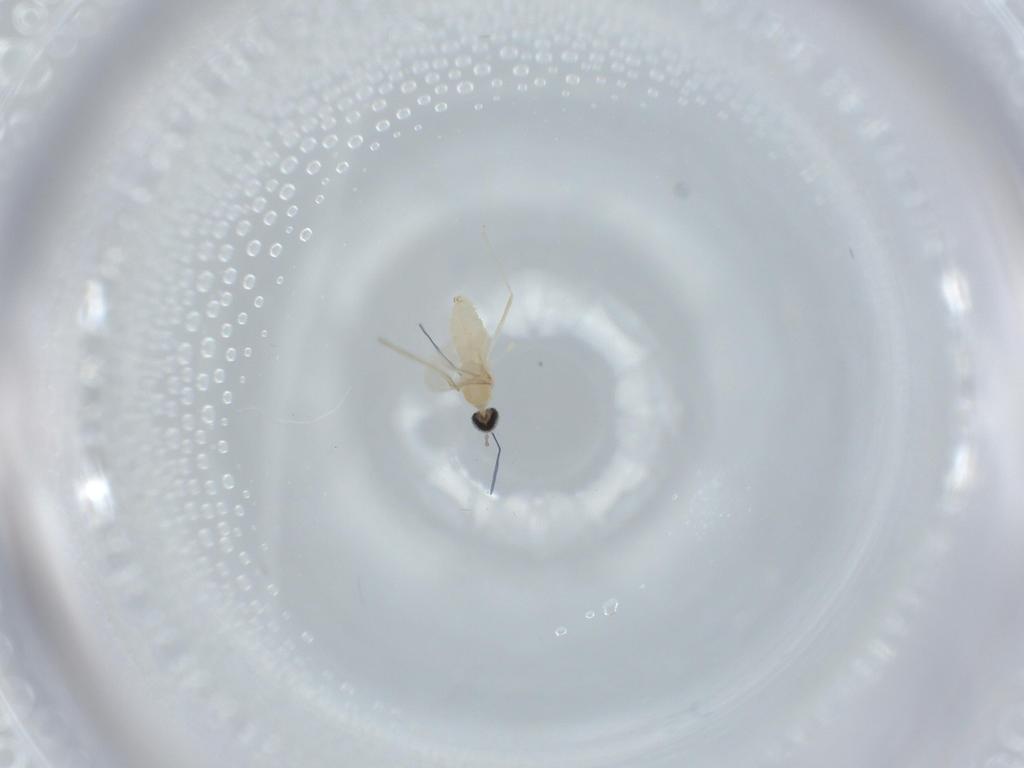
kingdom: Animalia
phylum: Arthropoda
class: Insecta
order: Diptera
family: Cecidomyiidae
